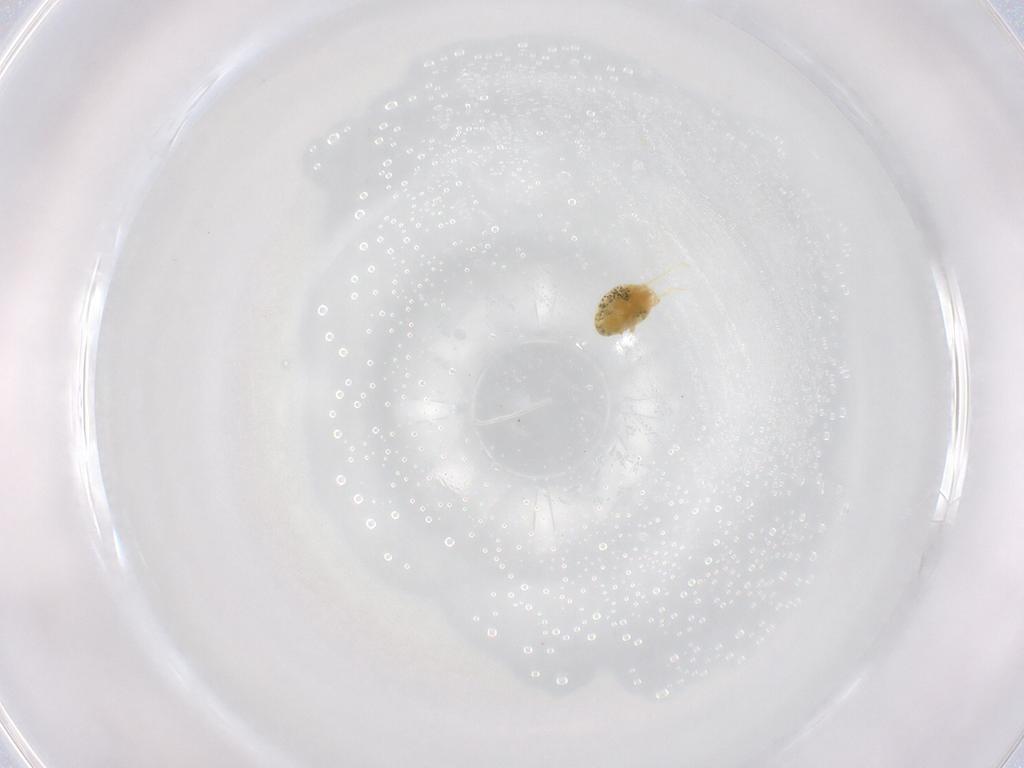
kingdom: Animalia
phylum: Arthropoda
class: Arachnida
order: Trombidiformes
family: Tetranychidae
